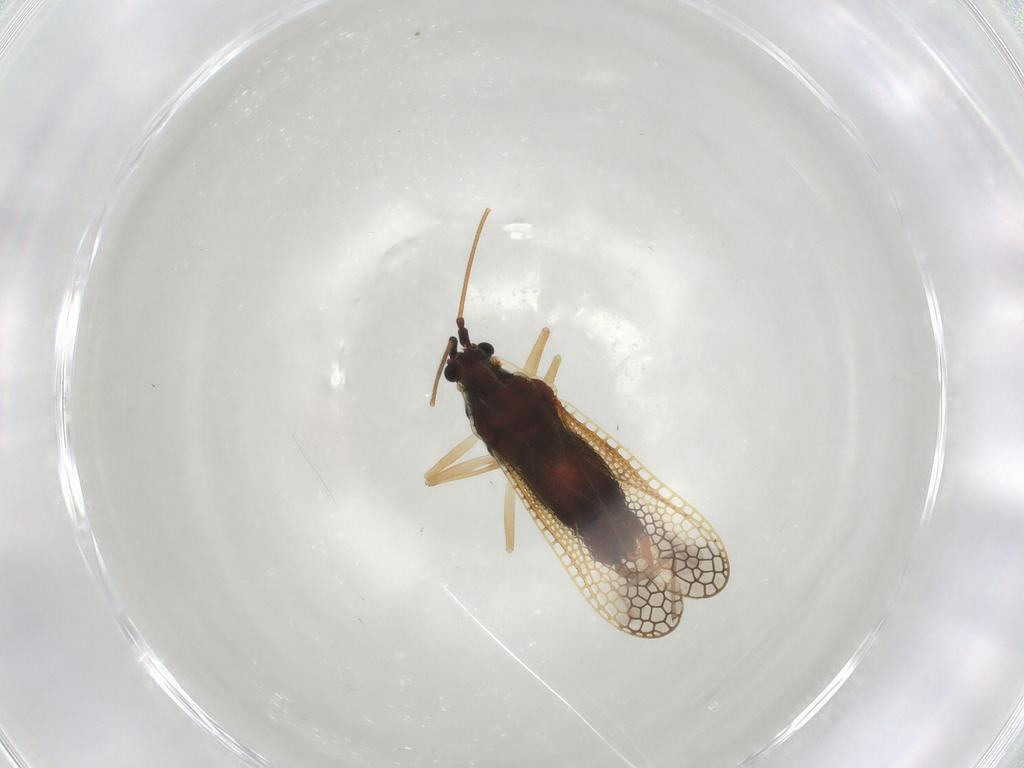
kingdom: Animalia
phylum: Arthropoda
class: Insecta
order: Hemiptera
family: Tingidae
